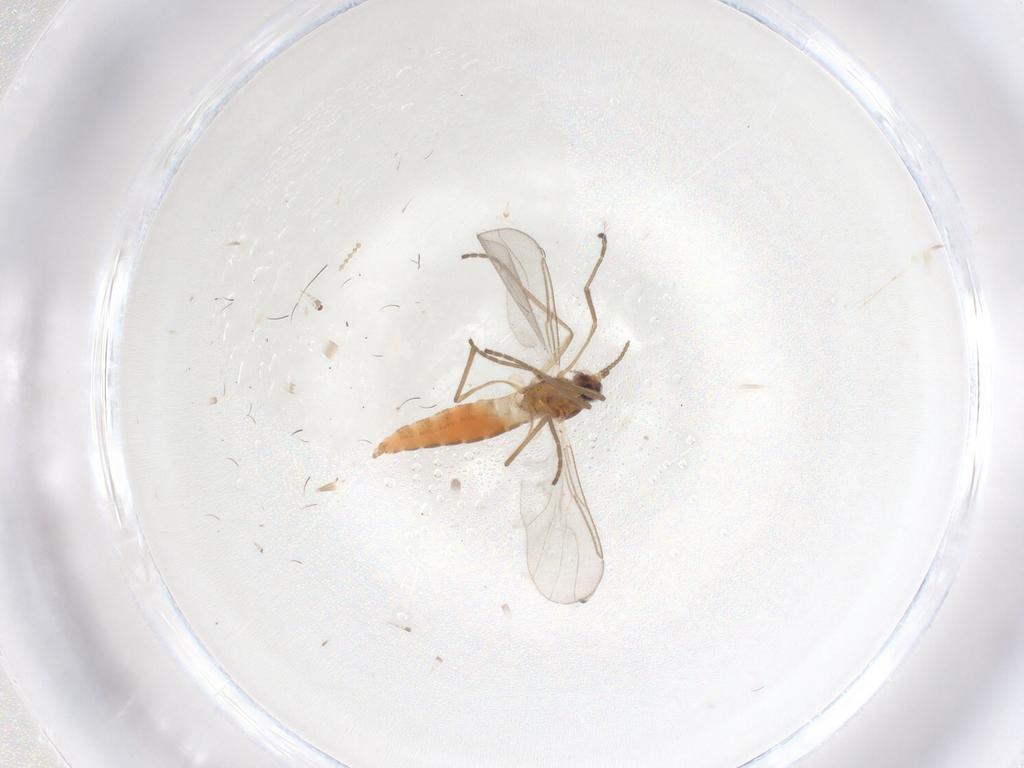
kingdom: Animalia
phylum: Arthropoda
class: Insecta
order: Diptera
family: Cecidomyiidae
